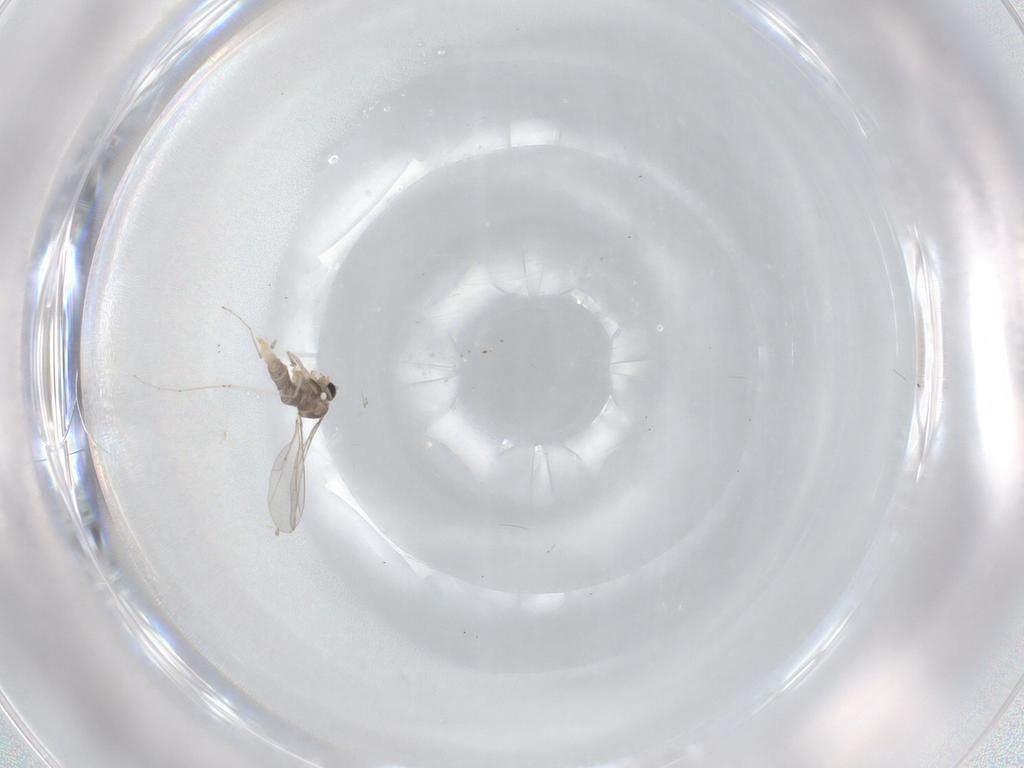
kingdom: Animalia
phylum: Arthropoda
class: Insecta
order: Diptera
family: Cecidomyiidae
